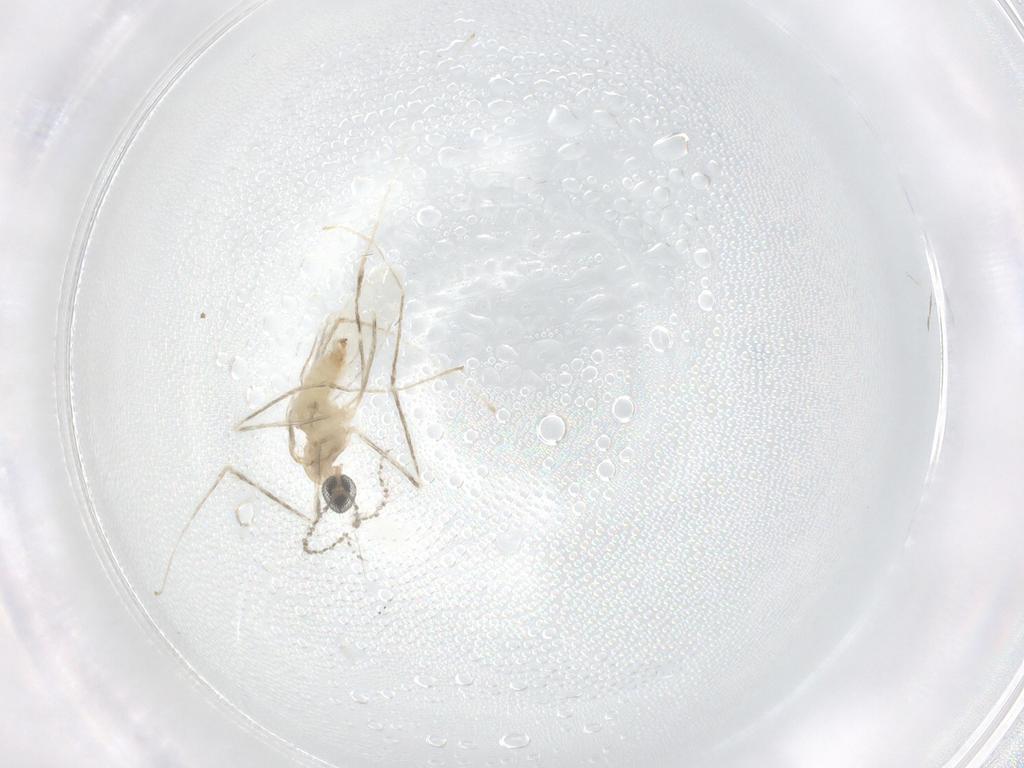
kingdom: Animalia
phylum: Arthropoda
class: Insecta
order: Diptera
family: Cecidomyiidae
